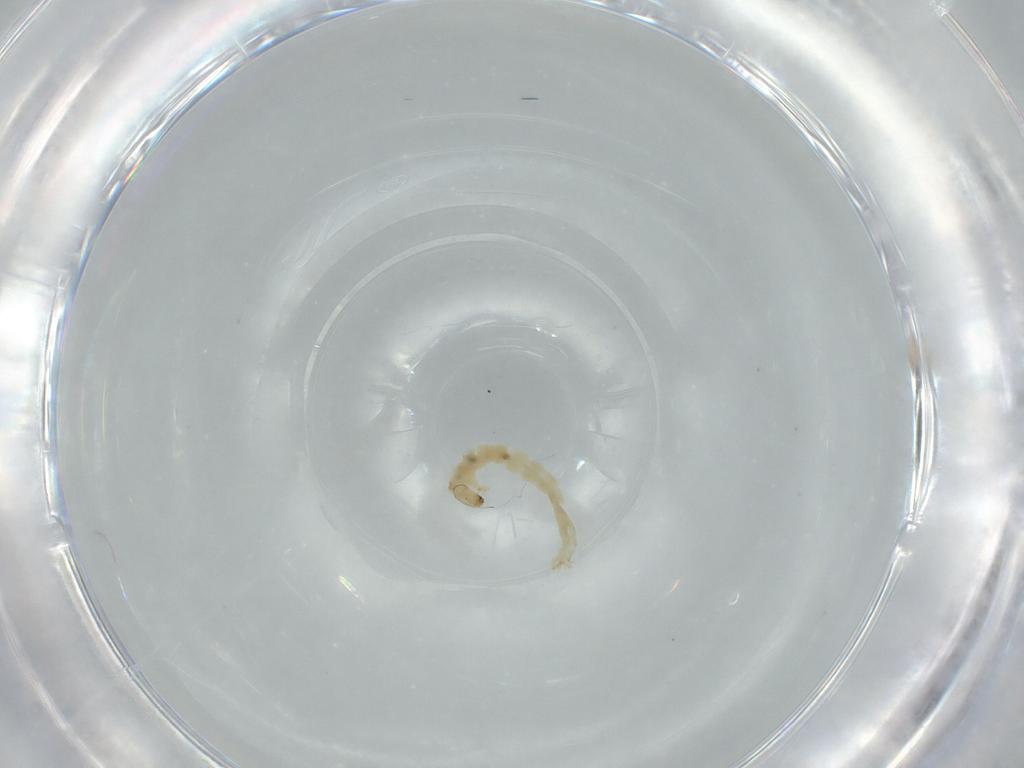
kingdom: Animalia
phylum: Arthropoda
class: Insecta
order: Diptera
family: Chironomidae
